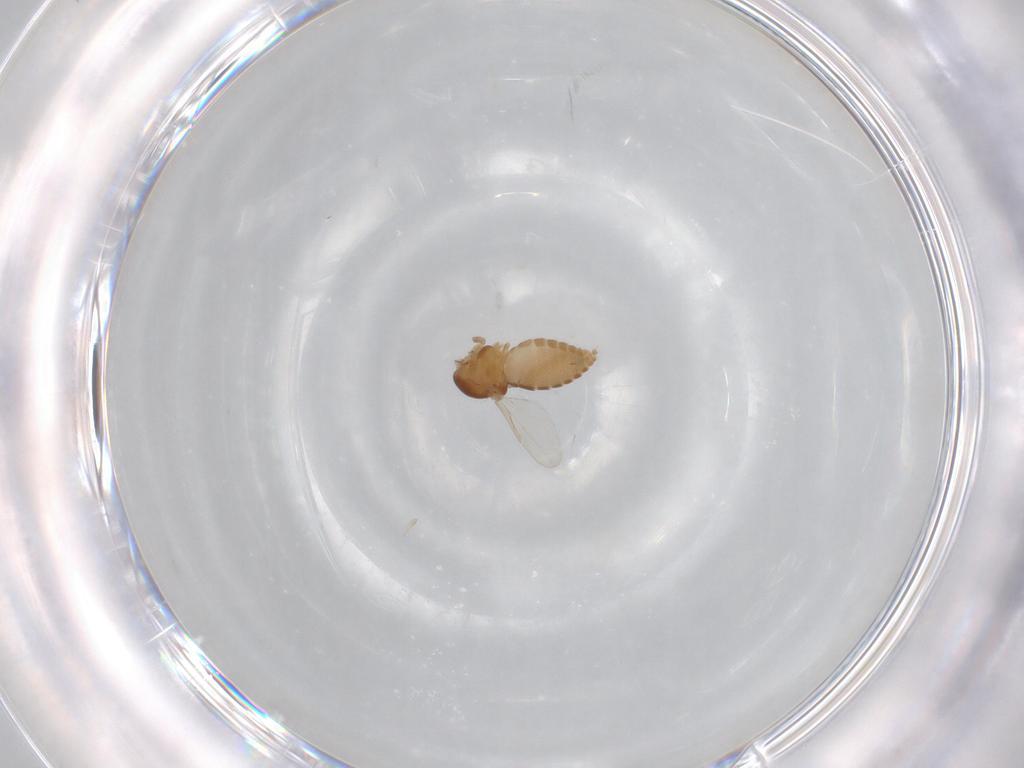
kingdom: Animalia
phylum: Arthropoda
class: Insecta
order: Diptera
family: Ceratopogonidae
